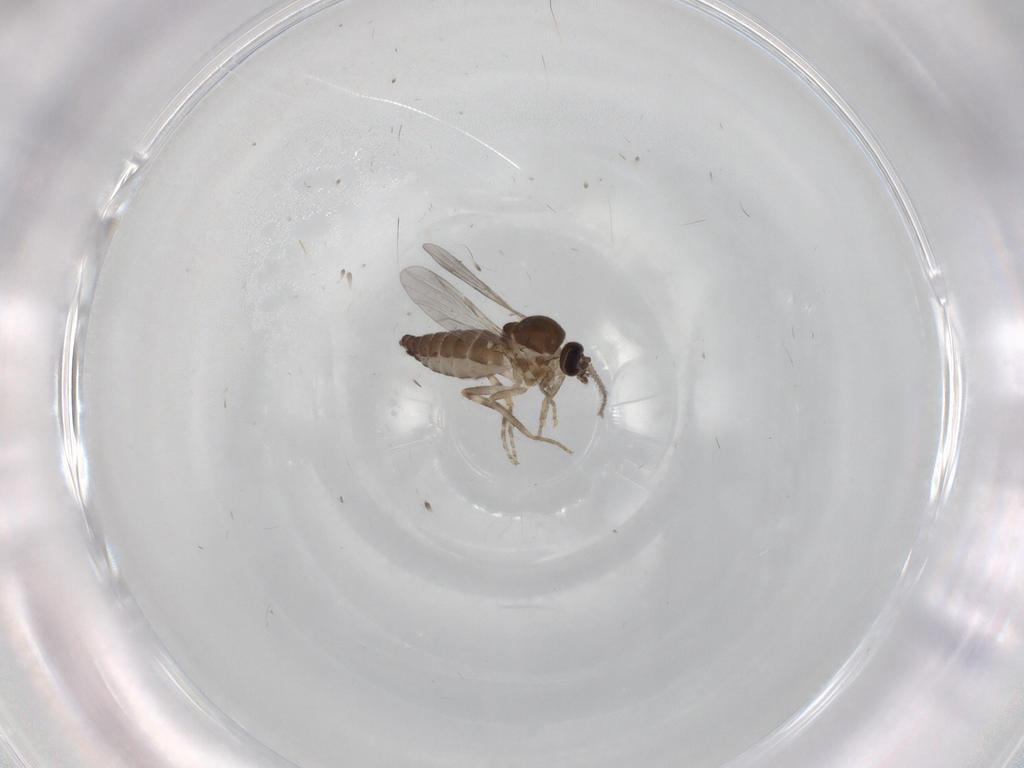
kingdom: Animalia
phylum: Arthropoda
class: Insecta
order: Diptera
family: Ceratopogonidae
